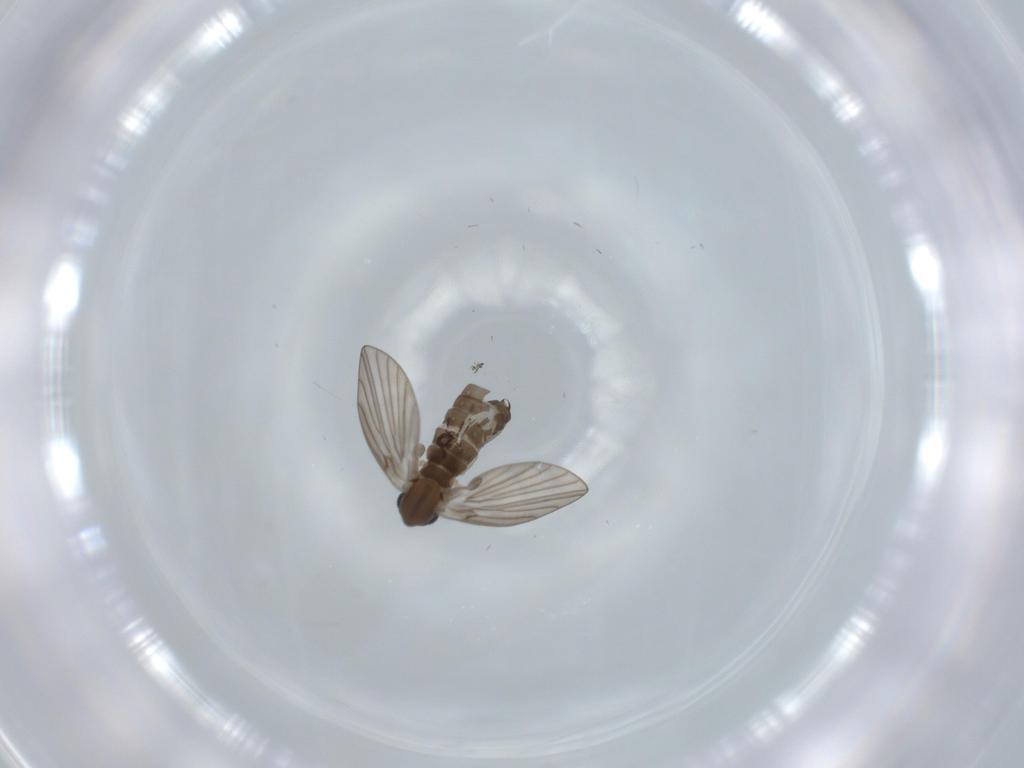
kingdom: Animalia
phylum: Arthropoda
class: Insecta
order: Diptera
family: Psychodidae
